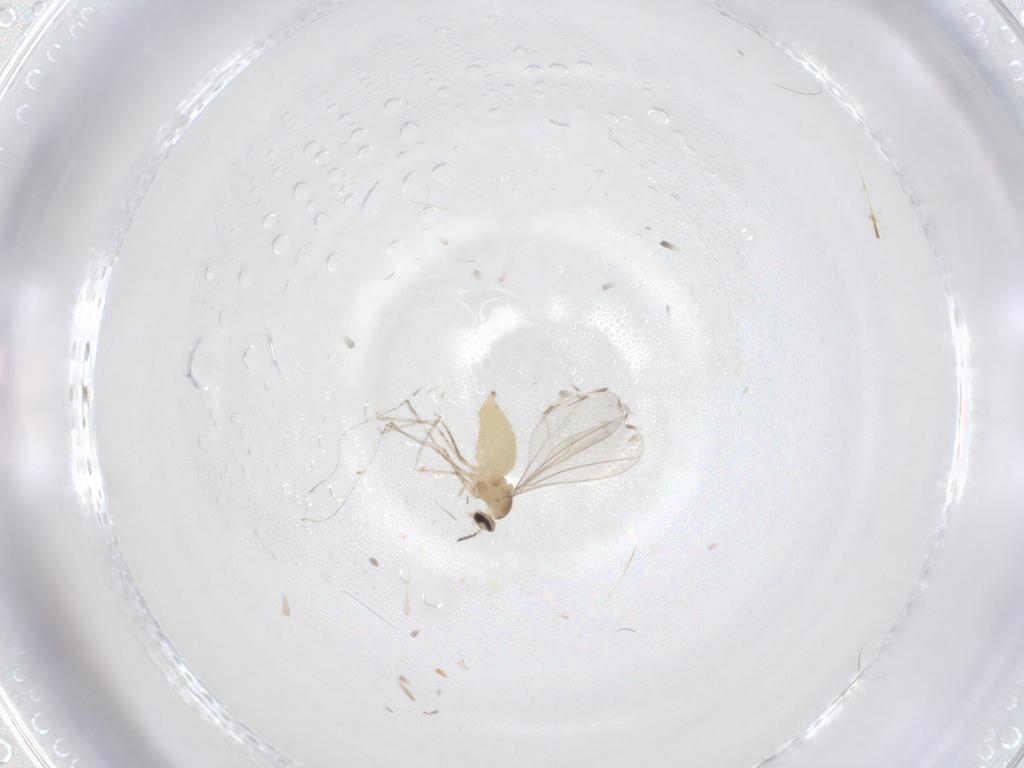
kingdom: Animalia
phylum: Arthropoda
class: Insecta
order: Diptera
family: Cecidomyiidae
